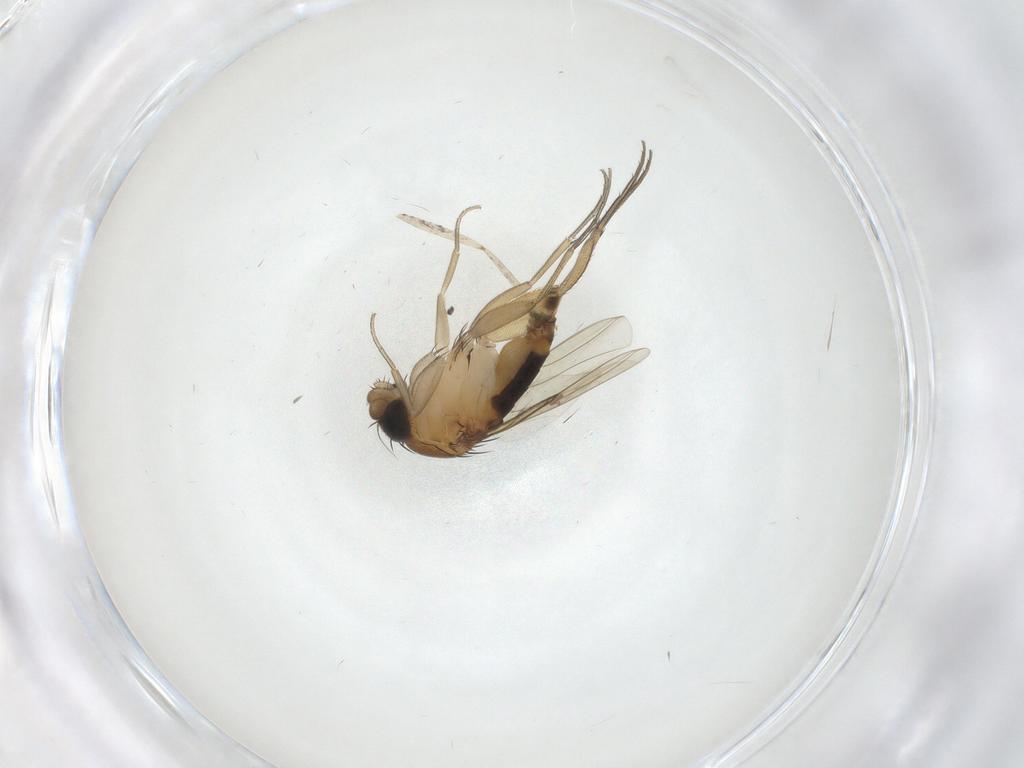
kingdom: Animalia
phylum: Arthropoda
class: Insecta
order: Diptera
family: Phoridae
